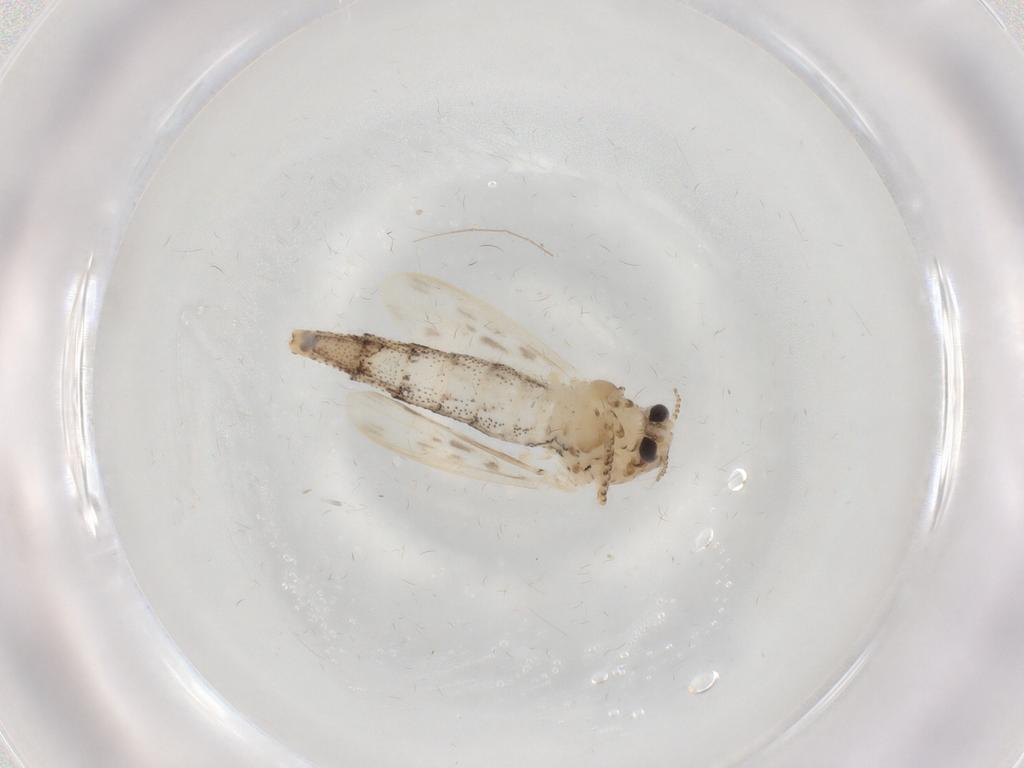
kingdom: Animalia
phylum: Arthropoda
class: Insecta
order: Diptera
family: Chaoboridae
